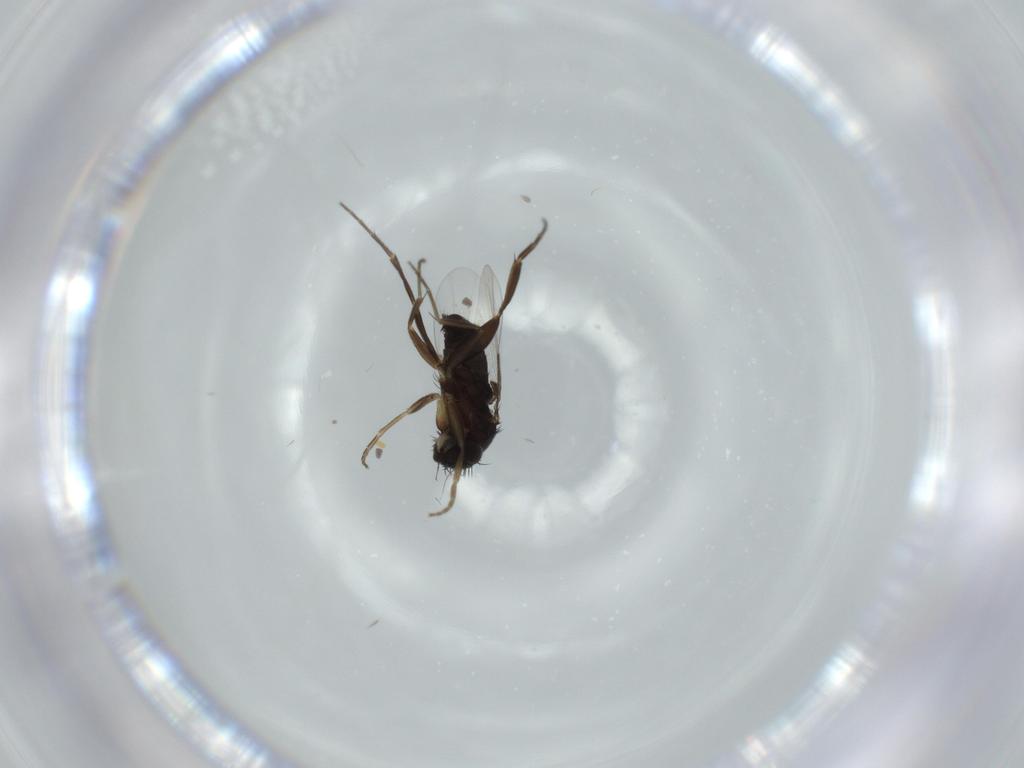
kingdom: Animalia
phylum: Arthropoda
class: Insecta
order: Diptera
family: Phoridae
